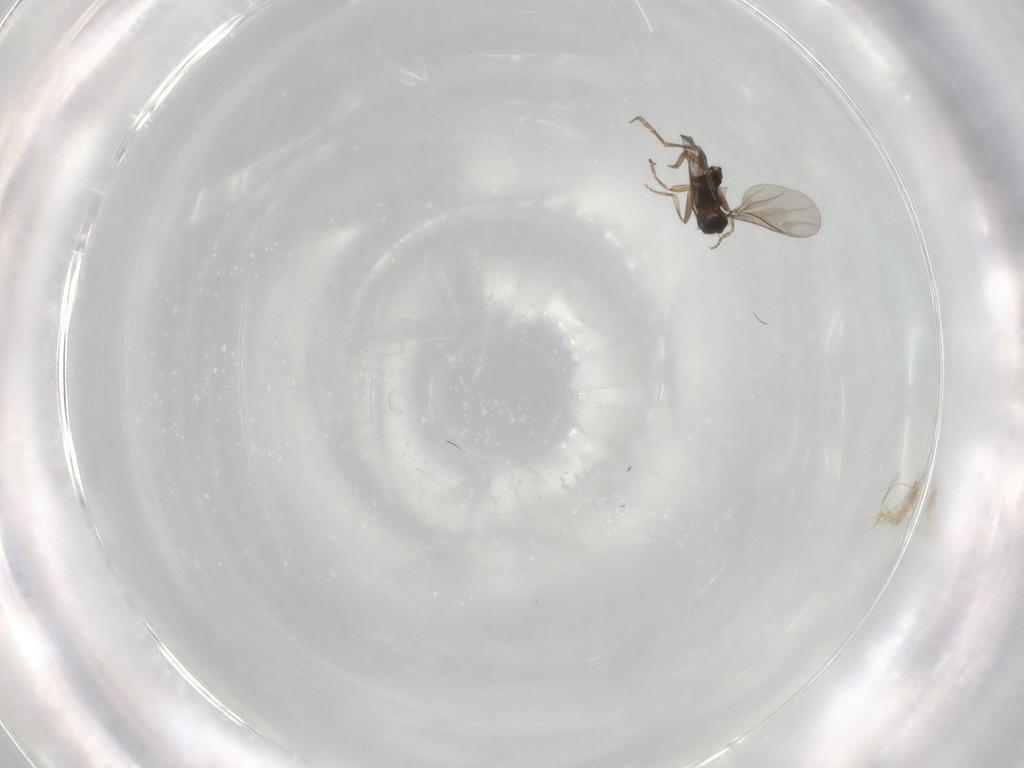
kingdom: Animalia
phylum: Arthropoda
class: Insecta
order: Diptera
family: Phoridae
